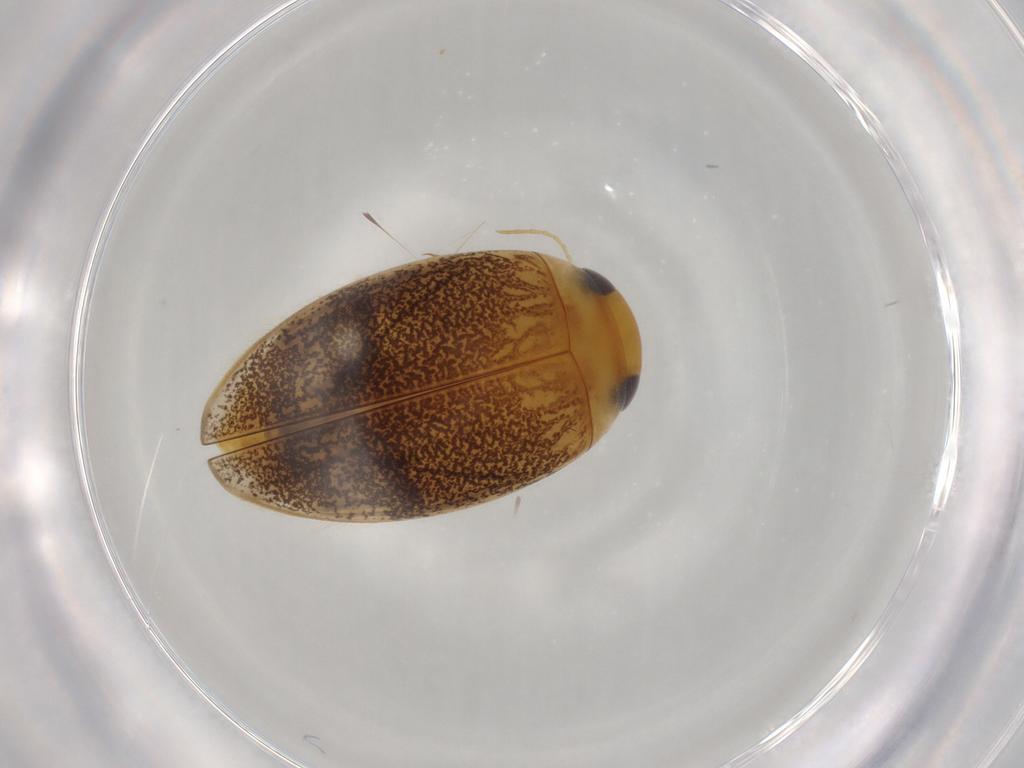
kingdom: Animalia
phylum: Arthropoda
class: Insecta
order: Coleoptera
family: Dytiscidae
